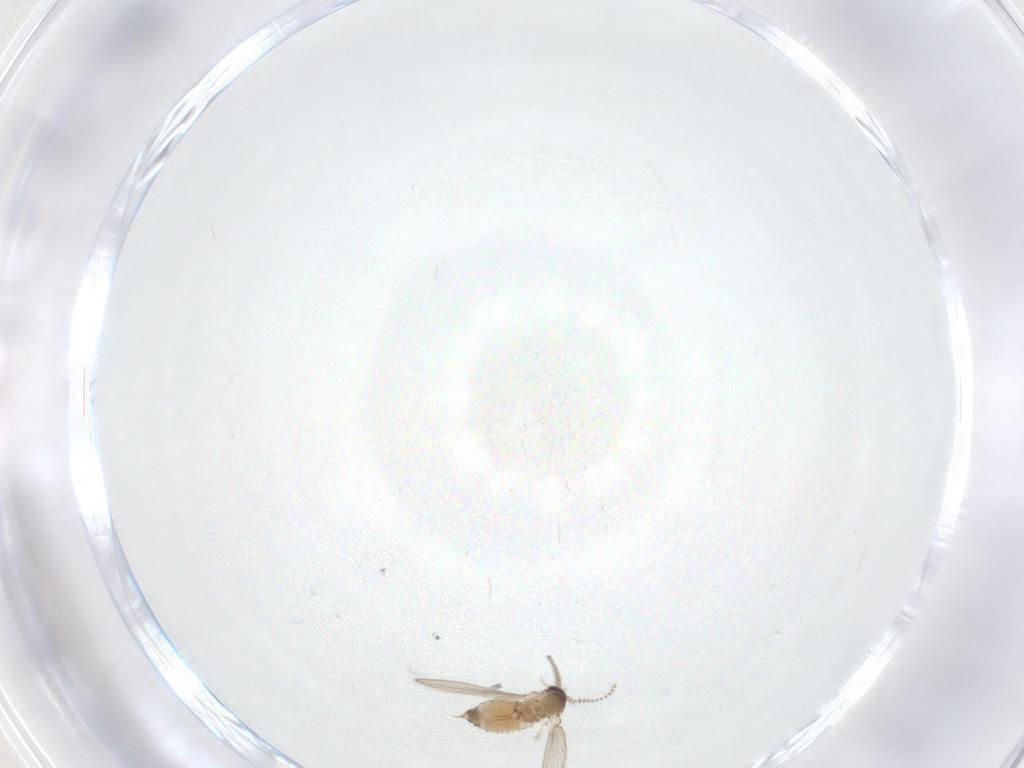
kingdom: Animalia
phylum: Arthropoda
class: Insecta
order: Diptera
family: Psychodidae
